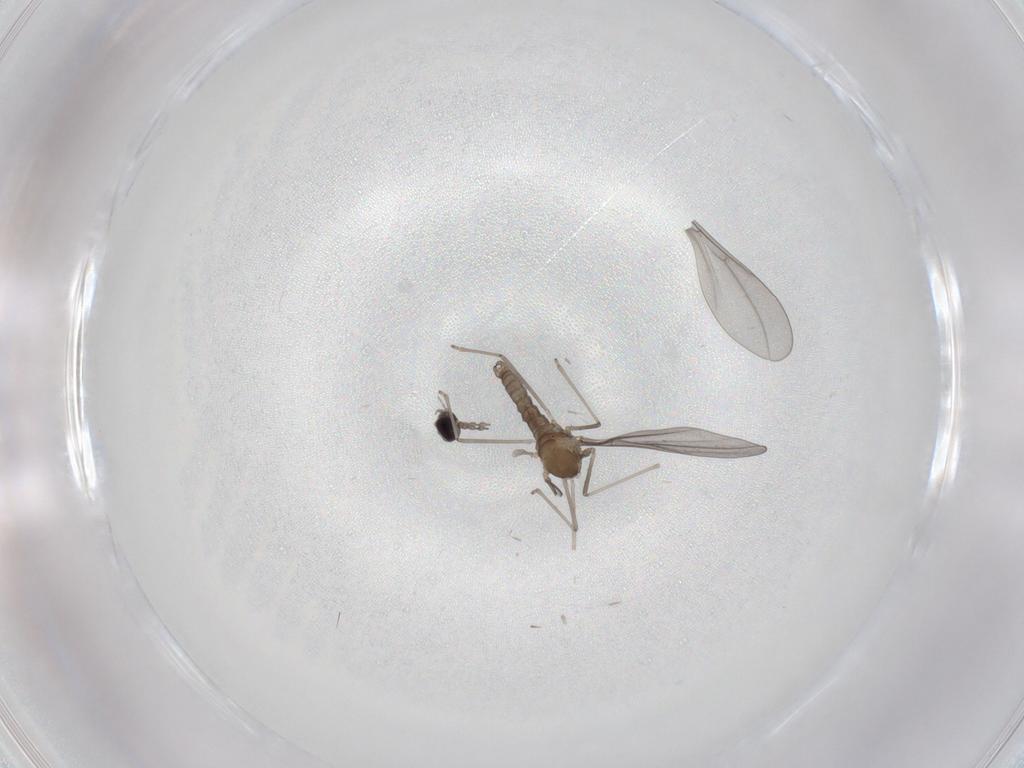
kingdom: Animalia
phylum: Arthropoda
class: Insecta
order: Diptera
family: Cecidomyiidae
